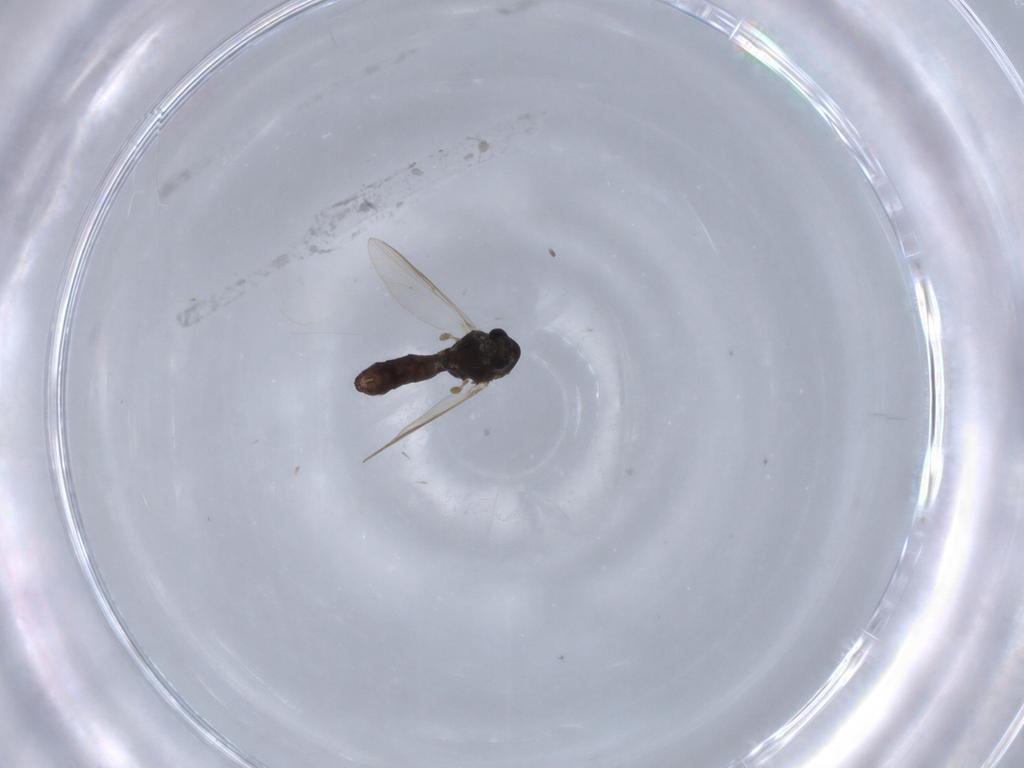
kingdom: Animalia
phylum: Arthropoda
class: Insecta
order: Diptera
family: Chironomidae
